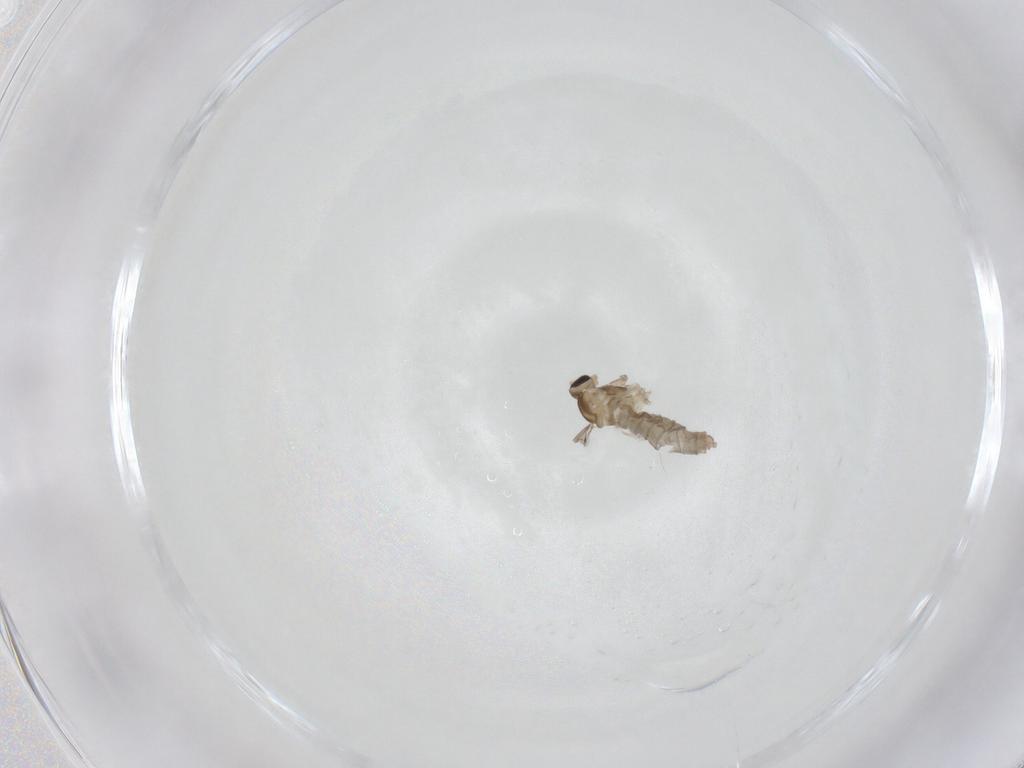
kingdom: Animalia
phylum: Arthropoda
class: Insecta
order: Diptera
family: Cecidomyiidae
